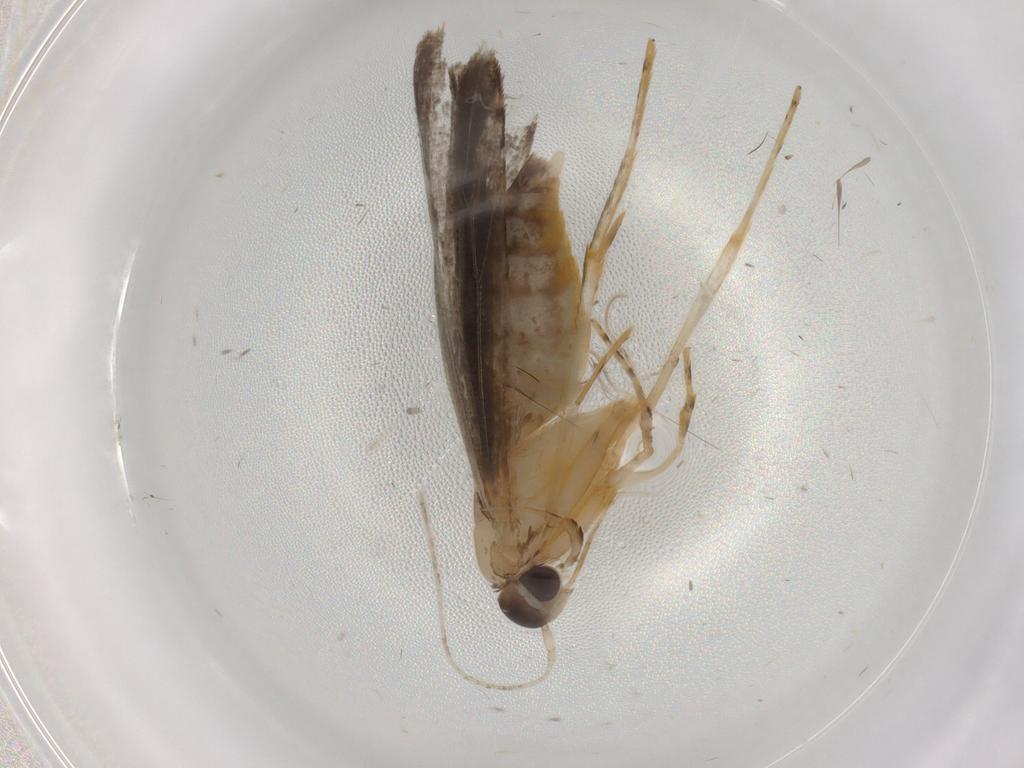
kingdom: Animalia
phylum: Arthropoda
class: Insecta
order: Lepidoptera
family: Cosmopterigidae
